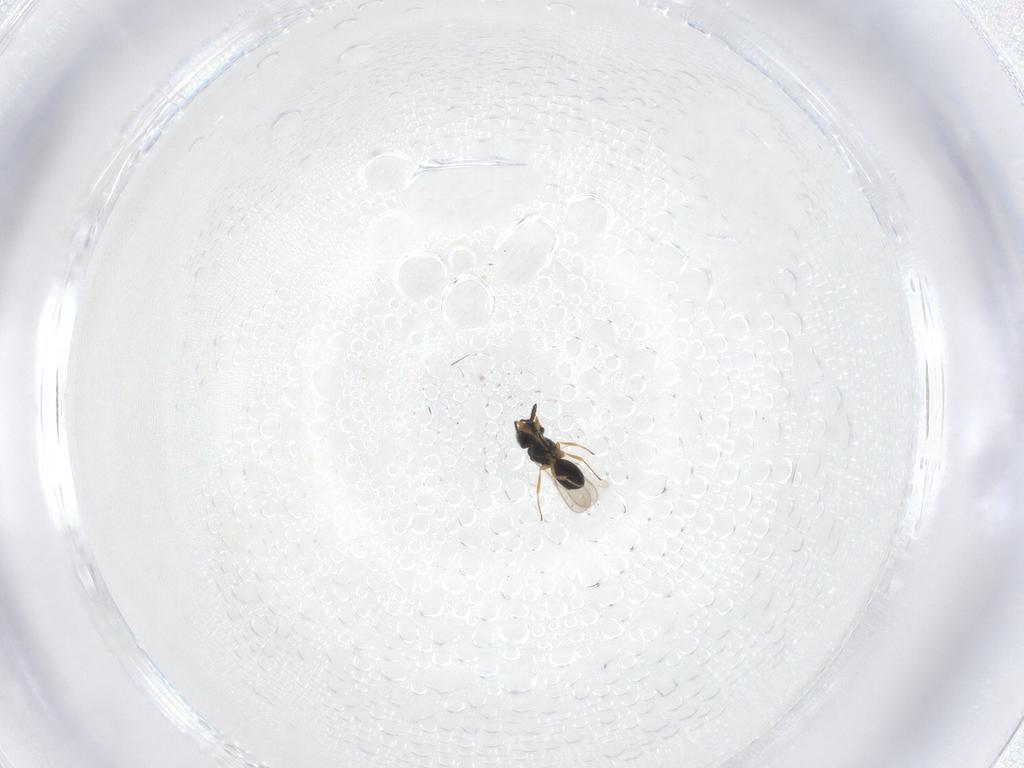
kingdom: Animalia
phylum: Arthropoda
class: Insecta
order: Hymenoptera
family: Scelionidae
